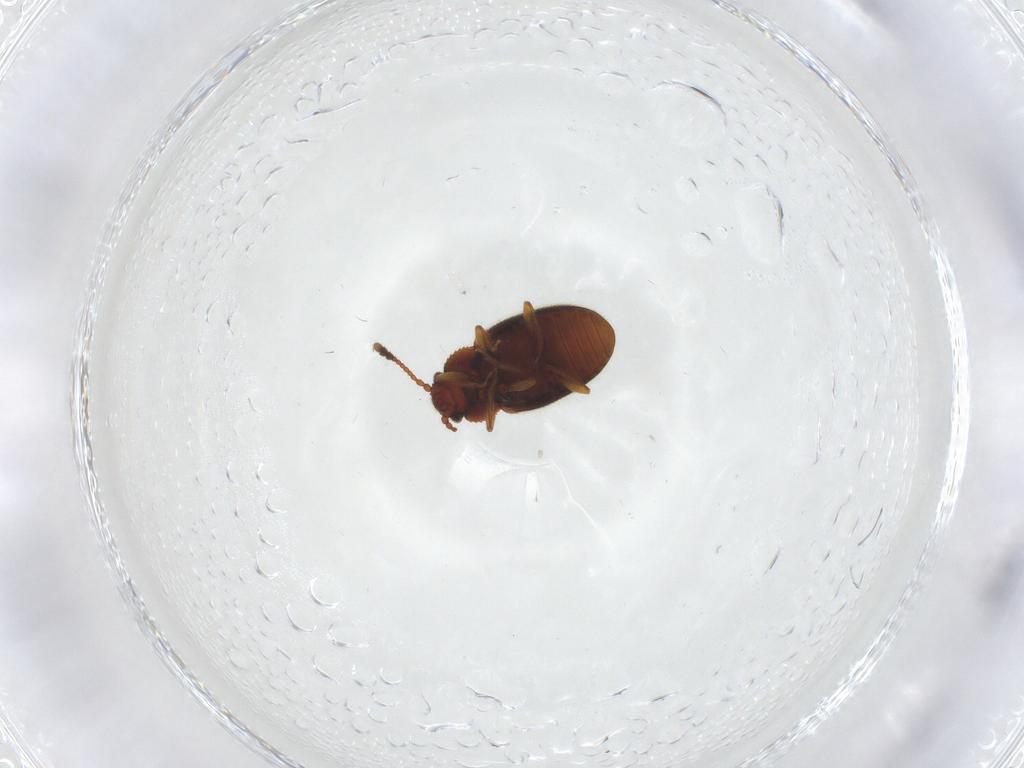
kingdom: Animalia
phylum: Arthropoda
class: Insecta
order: Coleoptera
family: Cryptophagidae
